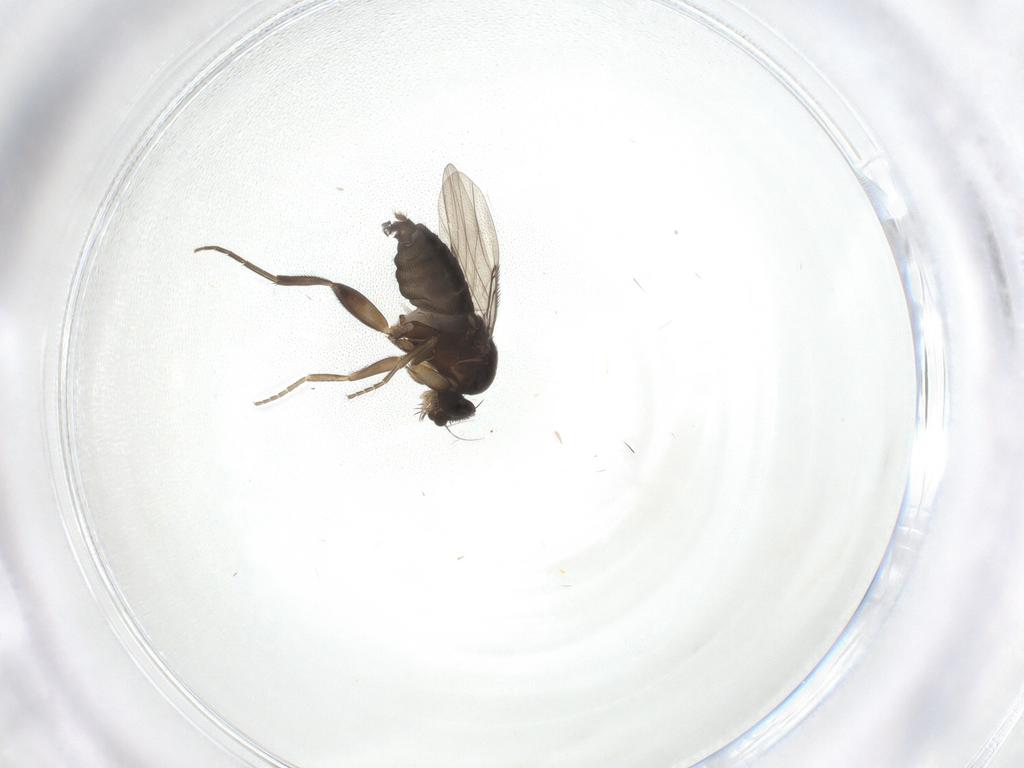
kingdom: Animalia
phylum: Arthropoda
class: Insecta
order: Diptera
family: Phoridae
